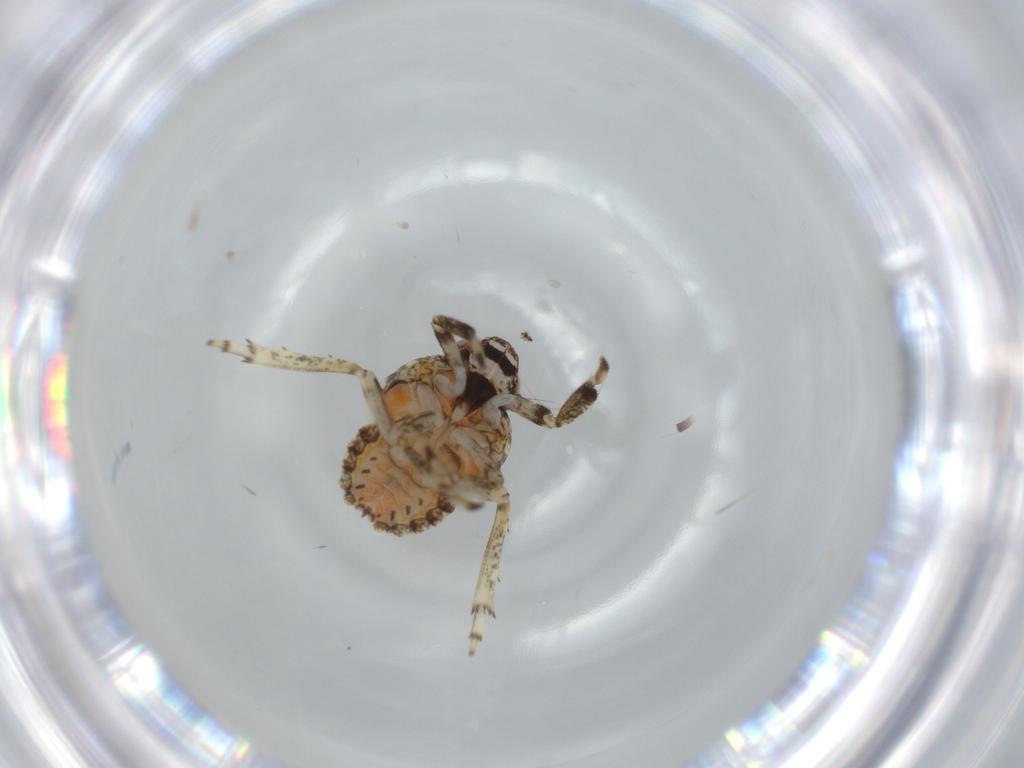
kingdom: Animalia
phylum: Arthropoda
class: Insecta
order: Hemiptera
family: Issidae
